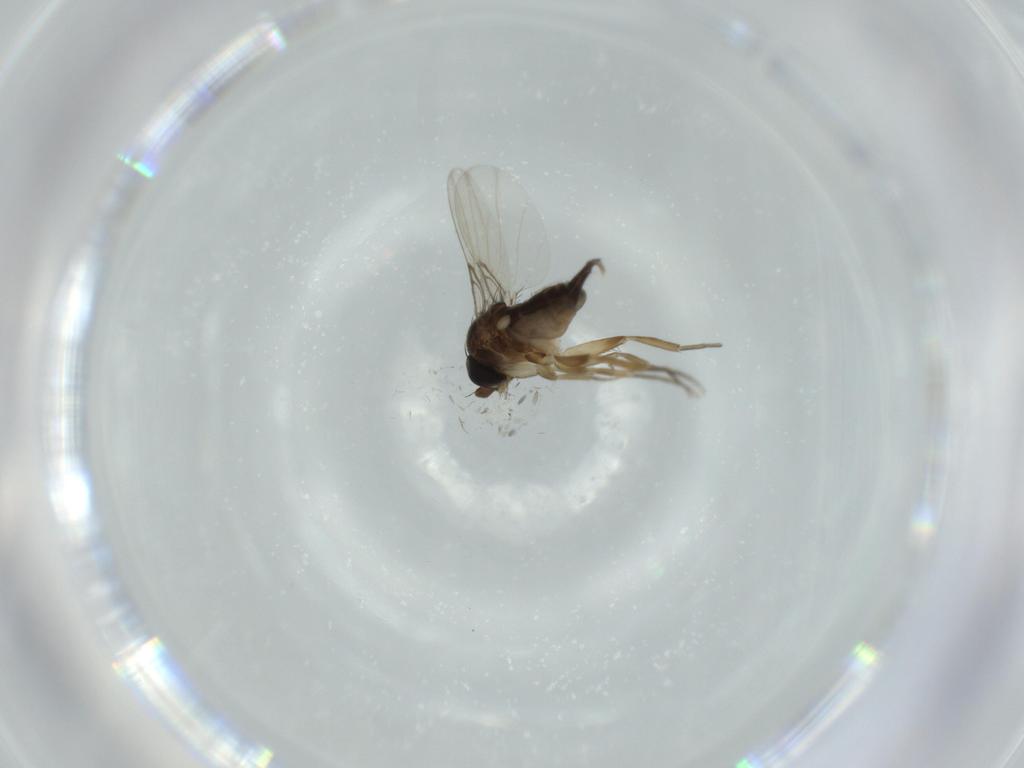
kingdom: Animalia
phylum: Arthropoda
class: Insecta
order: Diptera
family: Phoridae
